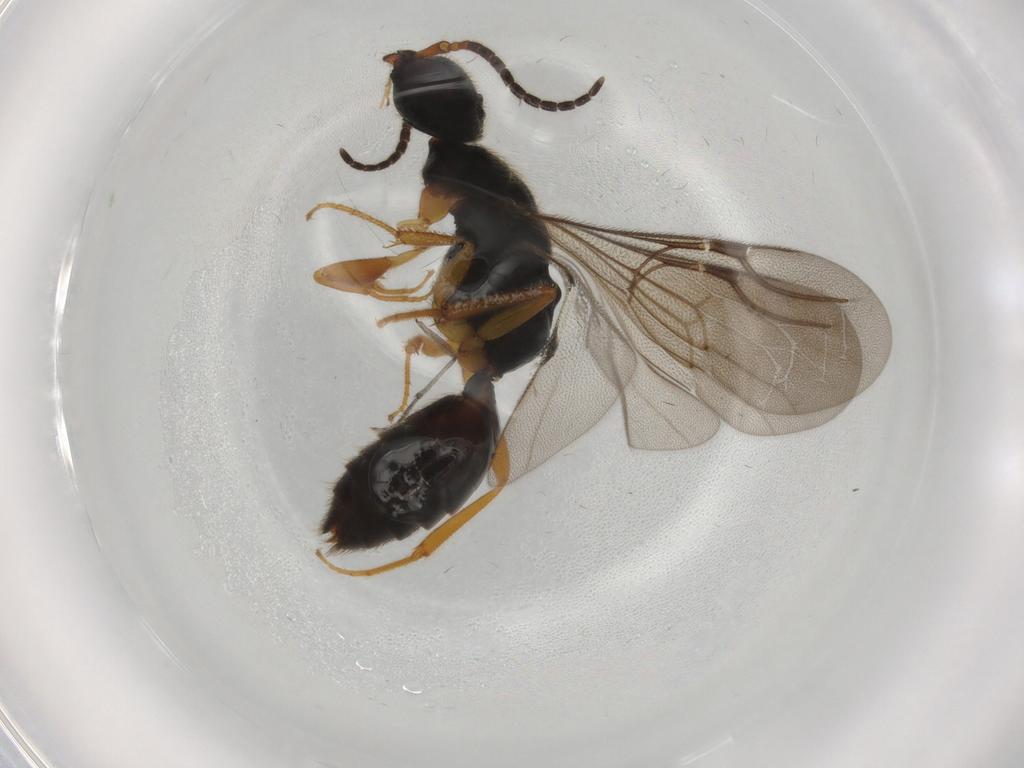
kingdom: Animalia
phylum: Arthropoda
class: Insecta
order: Hymenoptera
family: Bethylidae
